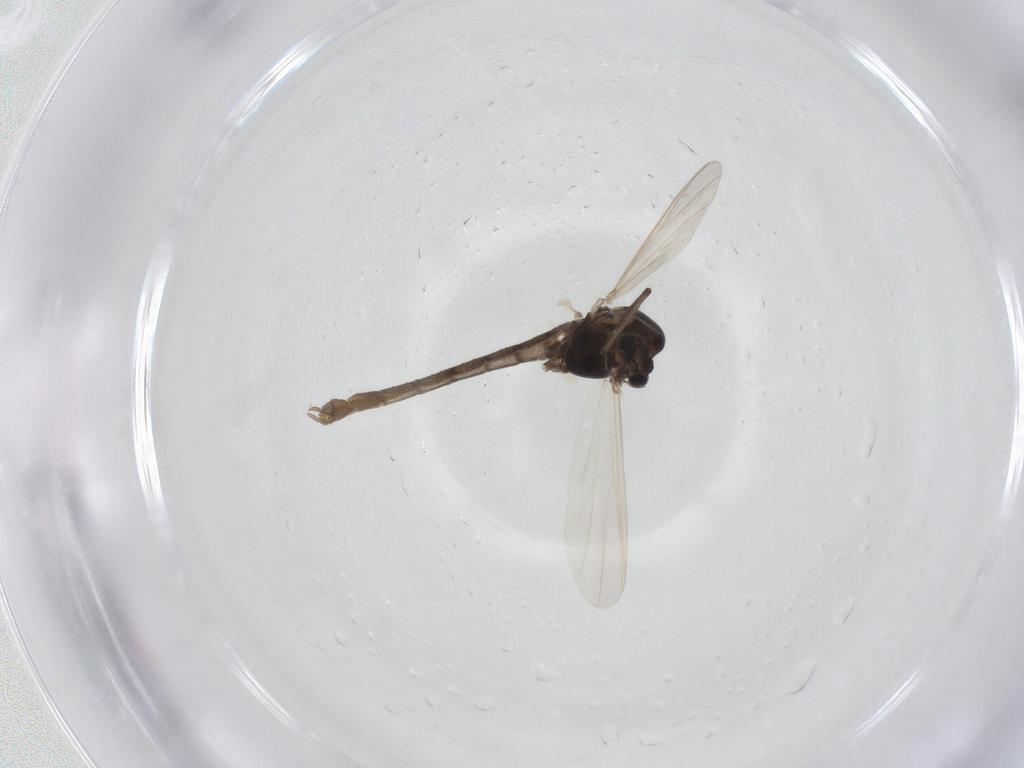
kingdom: Animalia
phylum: Arthropoda
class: Insecta
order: Diptera
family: Chironomidae
